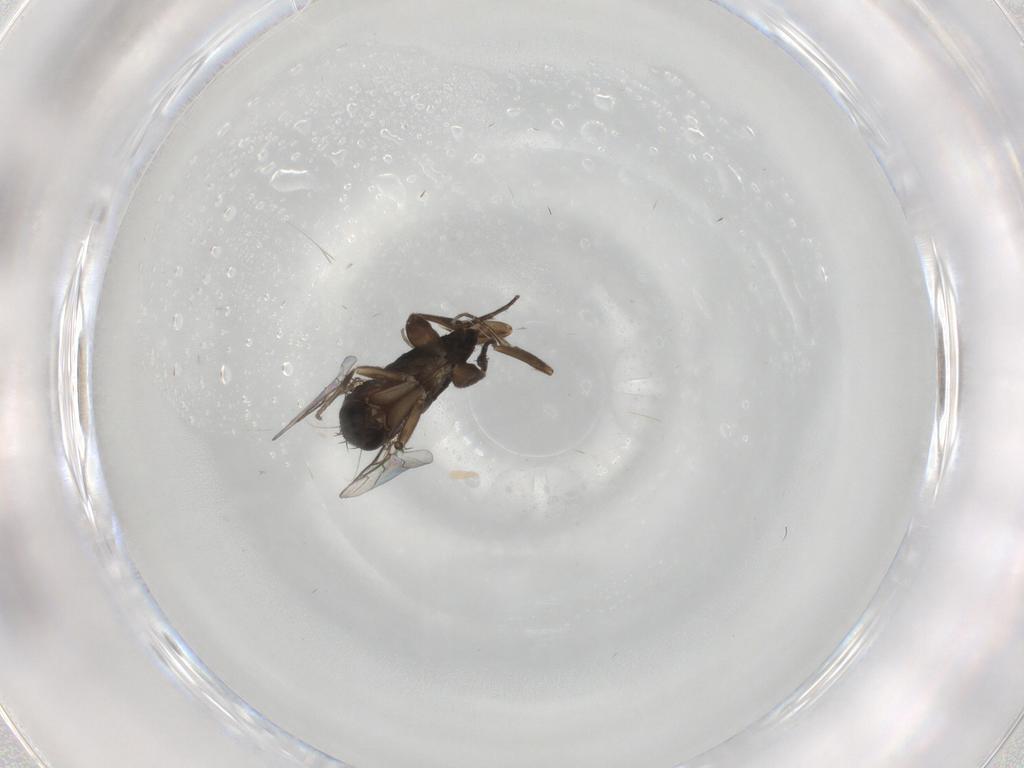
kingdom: Animalia
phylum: Arthropoda
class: Insecta
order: Diptera
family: Phoridae
